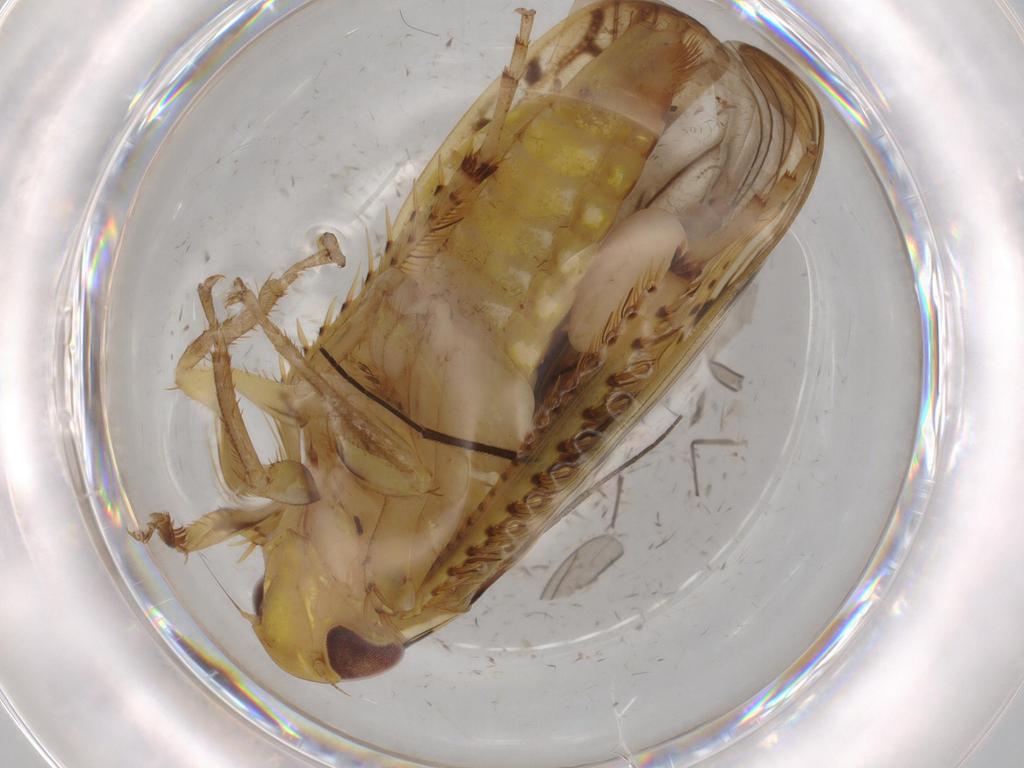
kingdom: Animalia
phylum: Arthropoda
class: Insecta
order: Hemiptera
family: Cicadellidae
